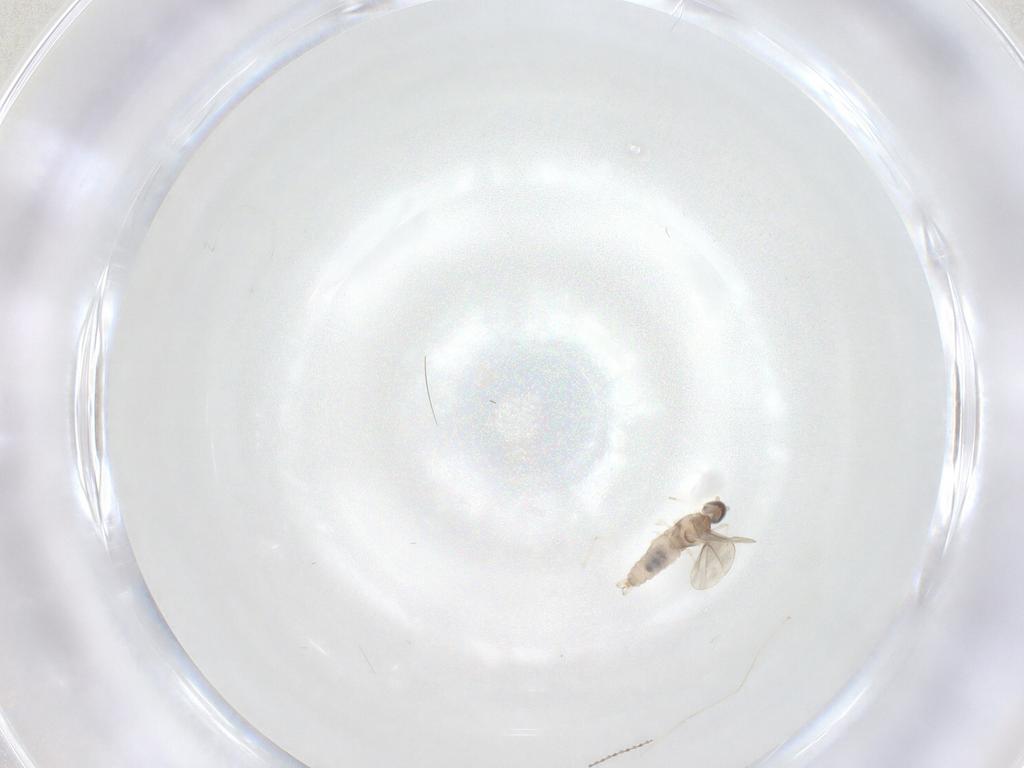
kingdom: Animalia
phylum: Arthropoda
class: Insecta
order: Diptera
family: Cecidomyiidae
